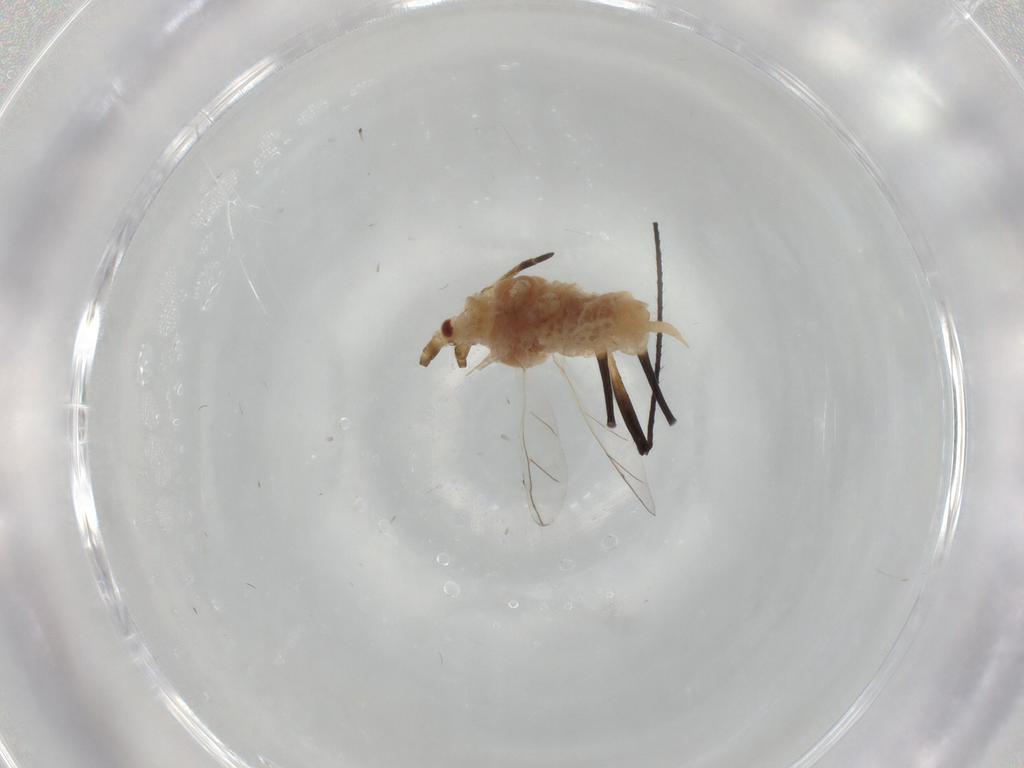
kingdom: Animalia
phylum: Arthropoda
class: Insecta
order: Hemiptera
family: Aphididae
